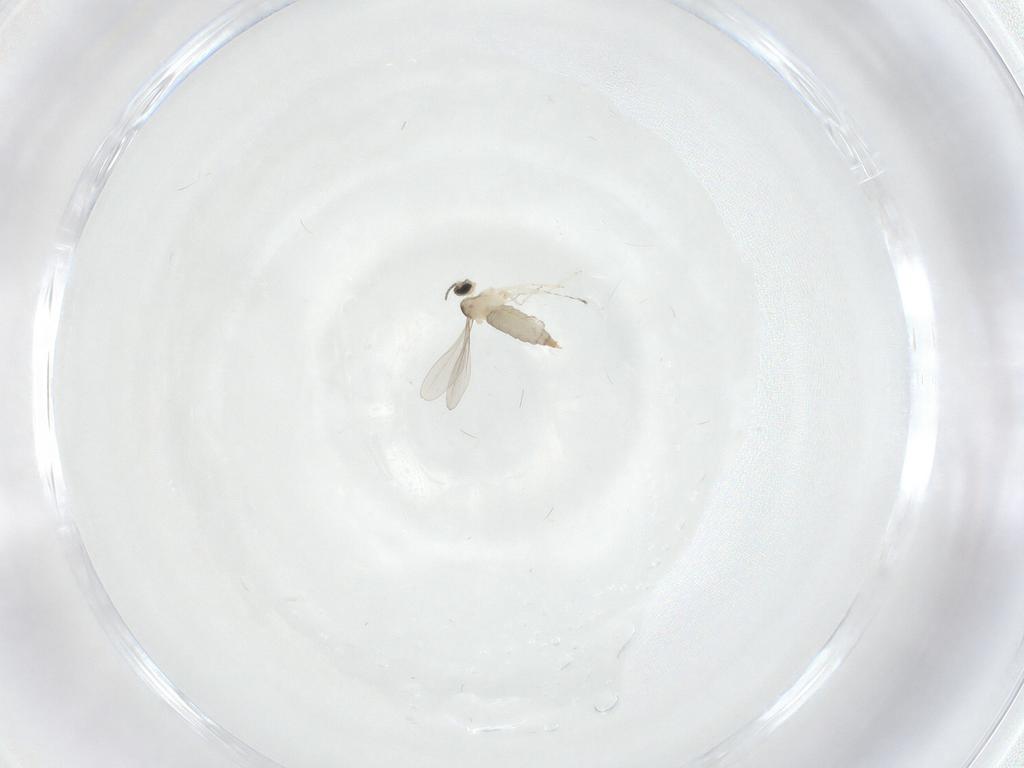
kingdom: Animalia
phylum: Arthropoda
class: Insecta
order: Diptera
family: Cecidomyiidae
